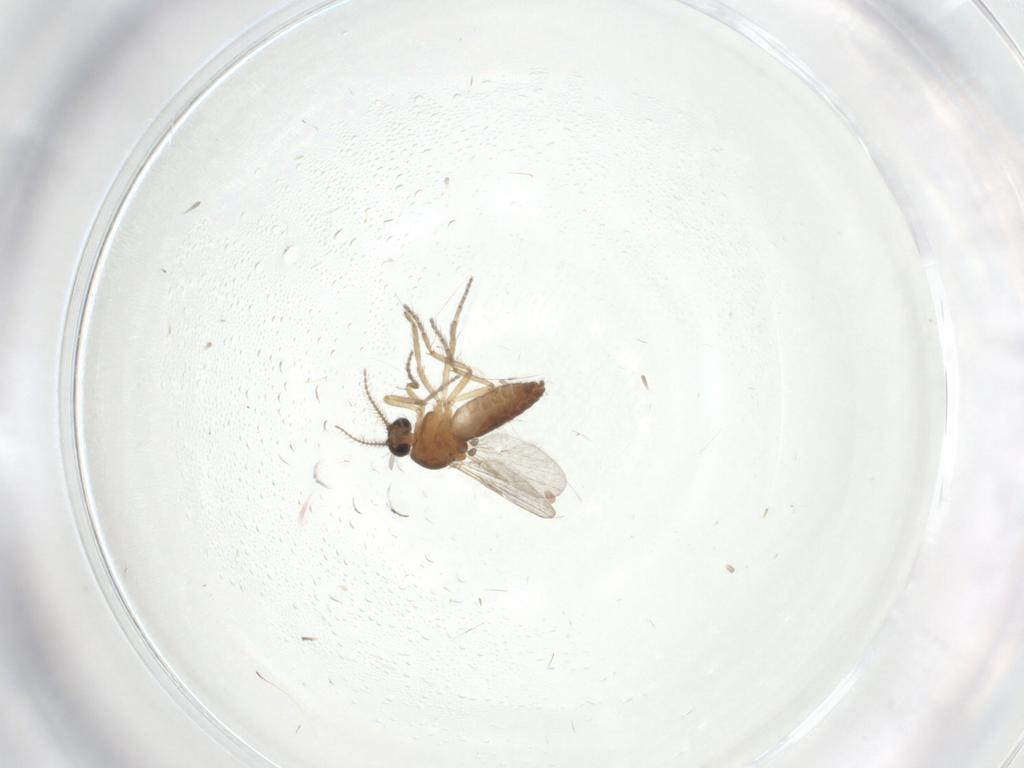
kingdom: Animalia
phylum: Arthropoda
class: Insecta
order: Diptera
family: Ceratopogonidae
